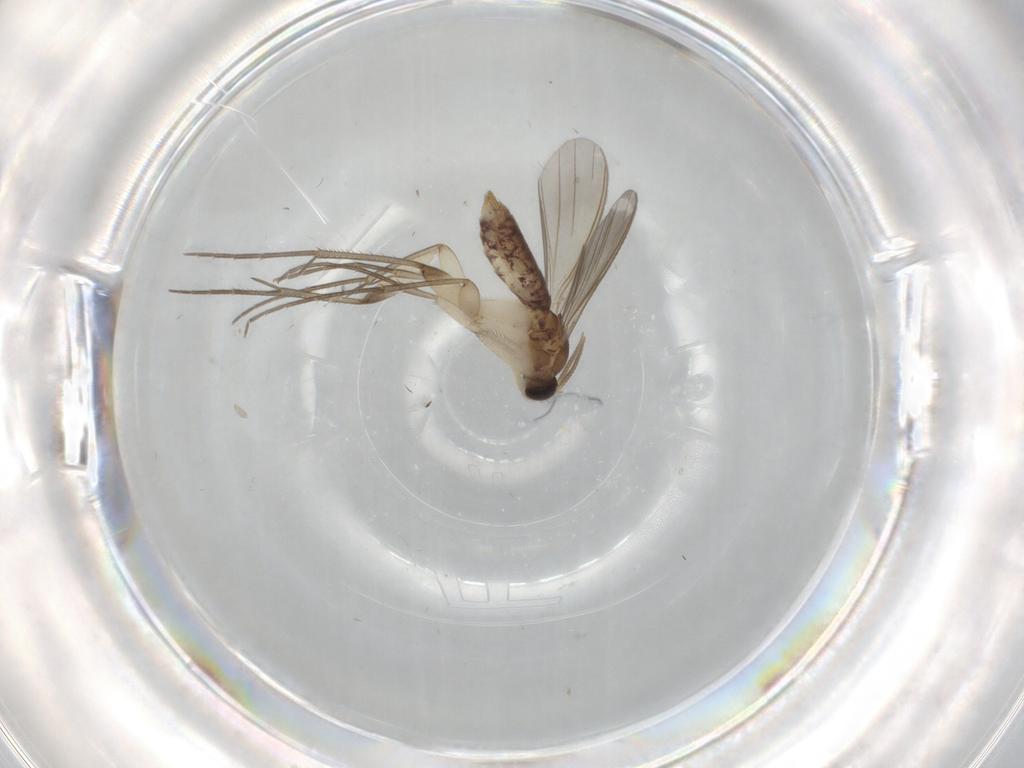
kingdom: Animalia
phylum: Arthropoda
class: Insecta
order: Diptera
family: Mycetophilidae
